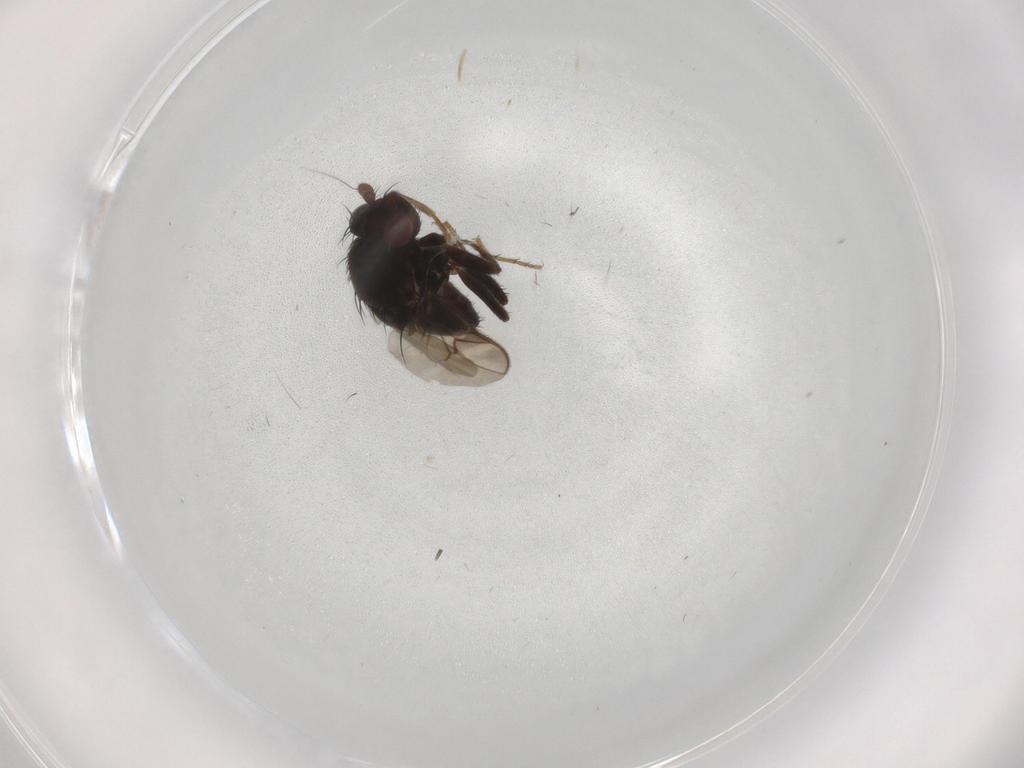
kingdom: Animalia
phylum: Arthropoda
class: Insecta
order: Diptera
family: Sphaeroceridae
